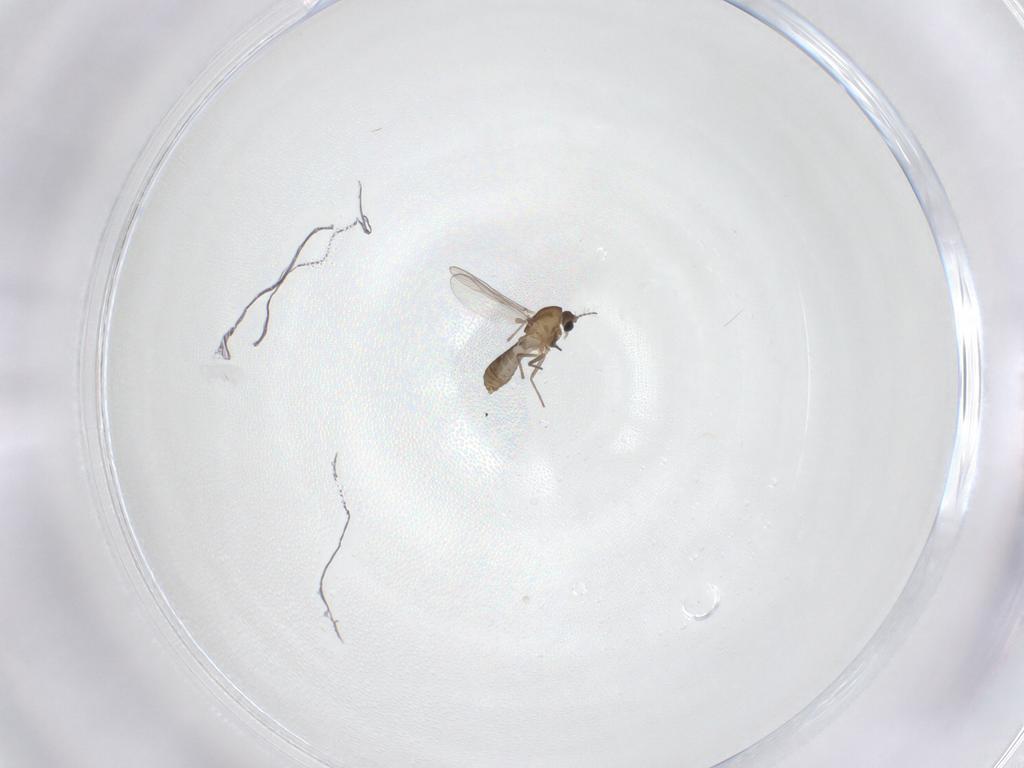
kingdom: Animalia
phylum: Arthropoda
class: Insecta
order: Diptera
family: Chironomidae
